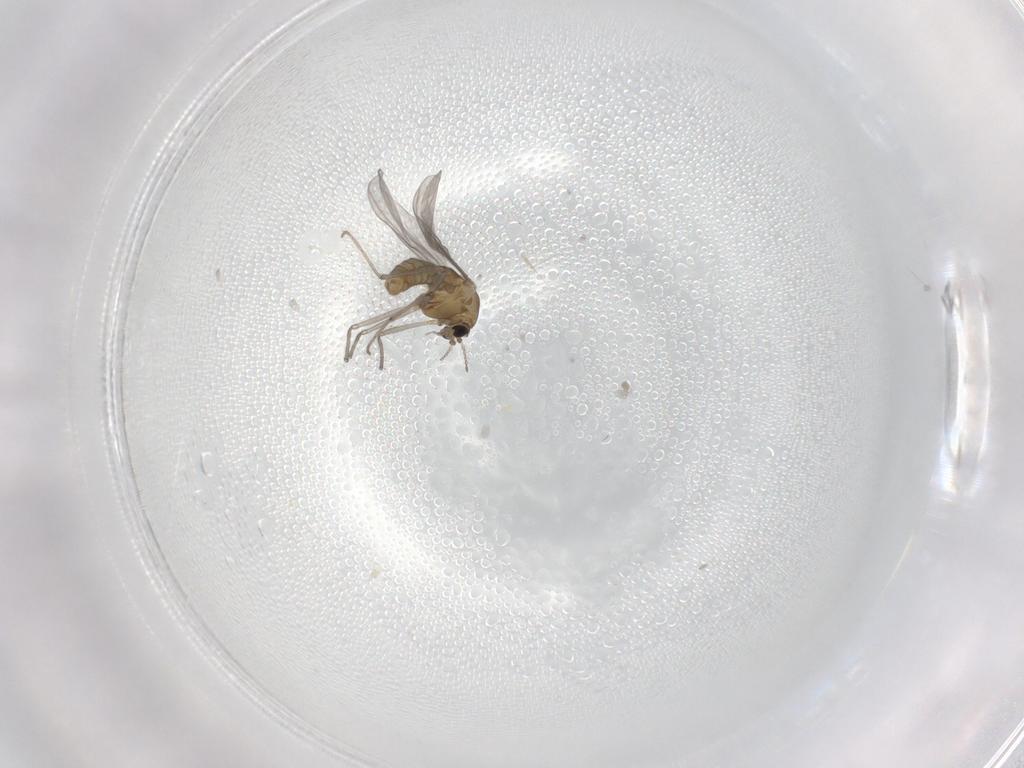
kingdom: Animalia
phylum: Arthropoda
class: Insecta
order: Diptera
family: Chironomidae
